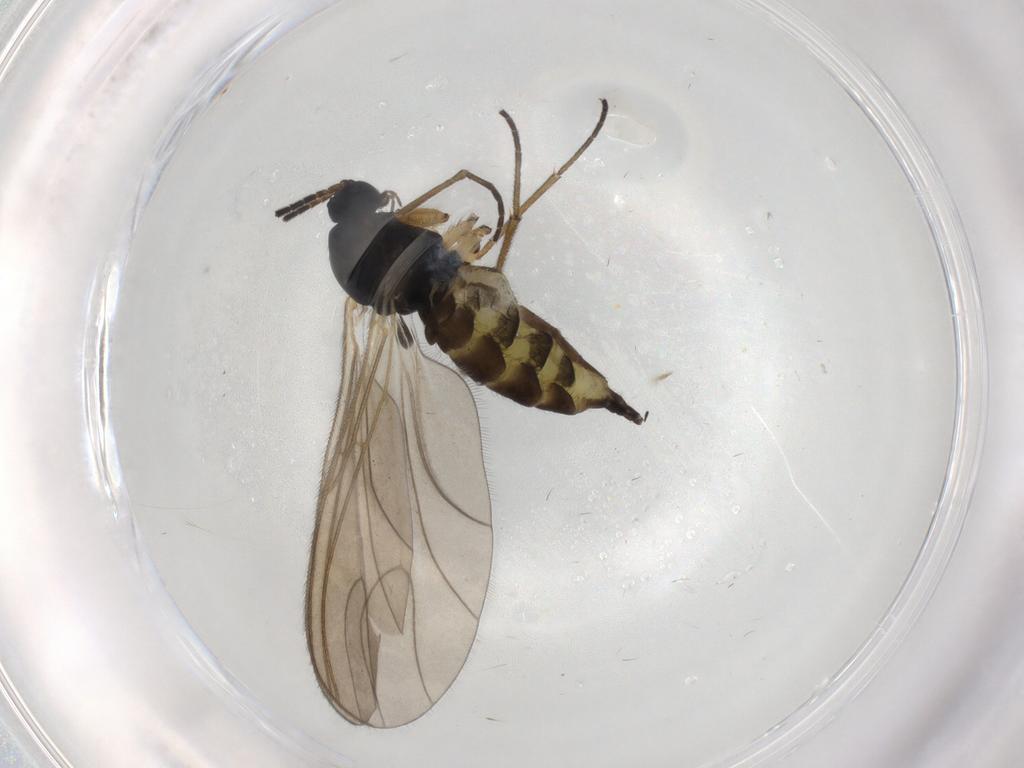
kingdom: Animalia
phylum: Arthropoda
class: Insecta
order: Diptera
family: Sciaridae
